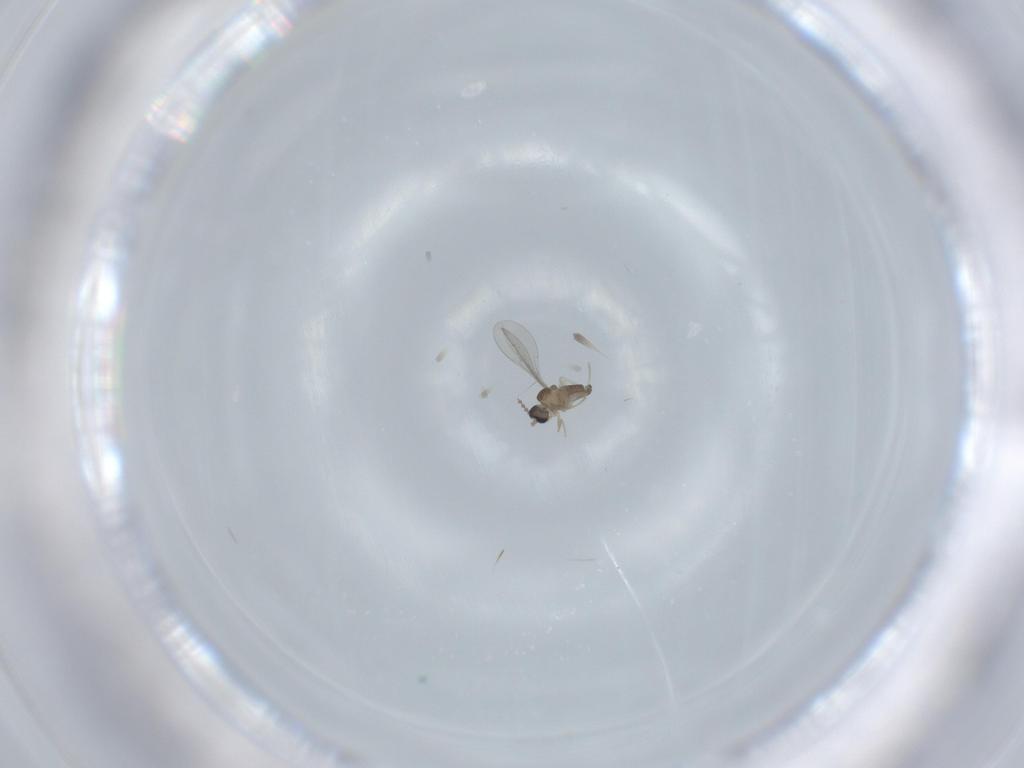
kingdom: Animalia
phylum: Arthropoda
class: Insecta
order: Diptera
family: Cecidomyiidae
